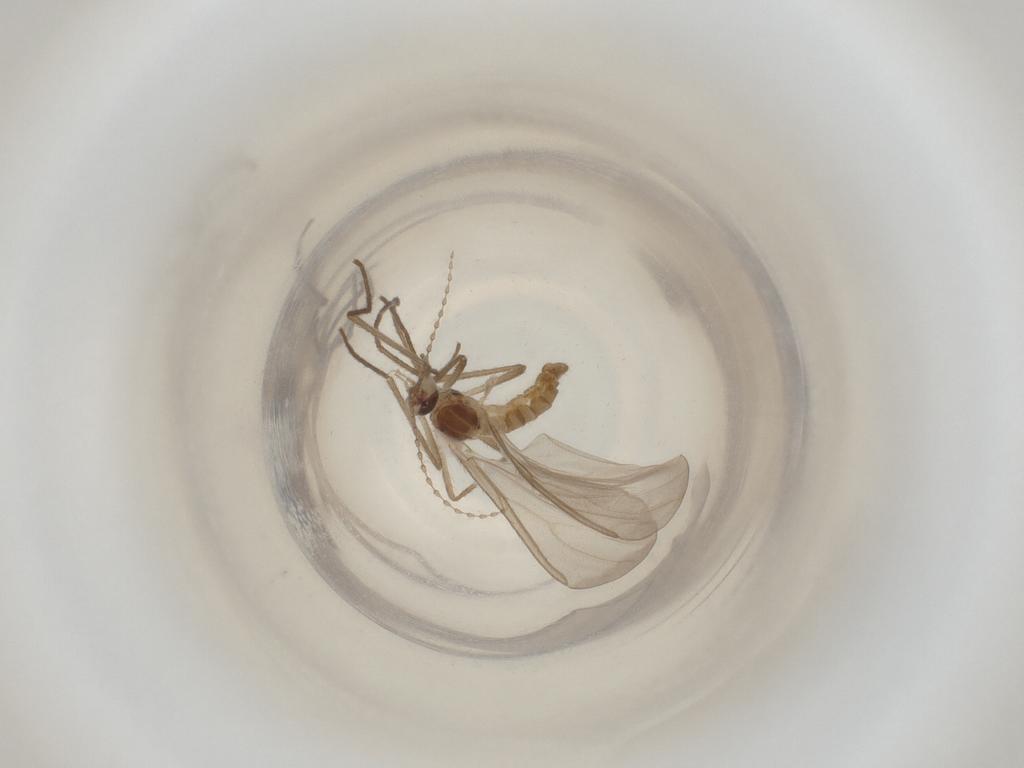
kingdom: Animalia
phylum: Arthropoda
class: Insecta
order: Diptera
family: Cecidomyiidae
